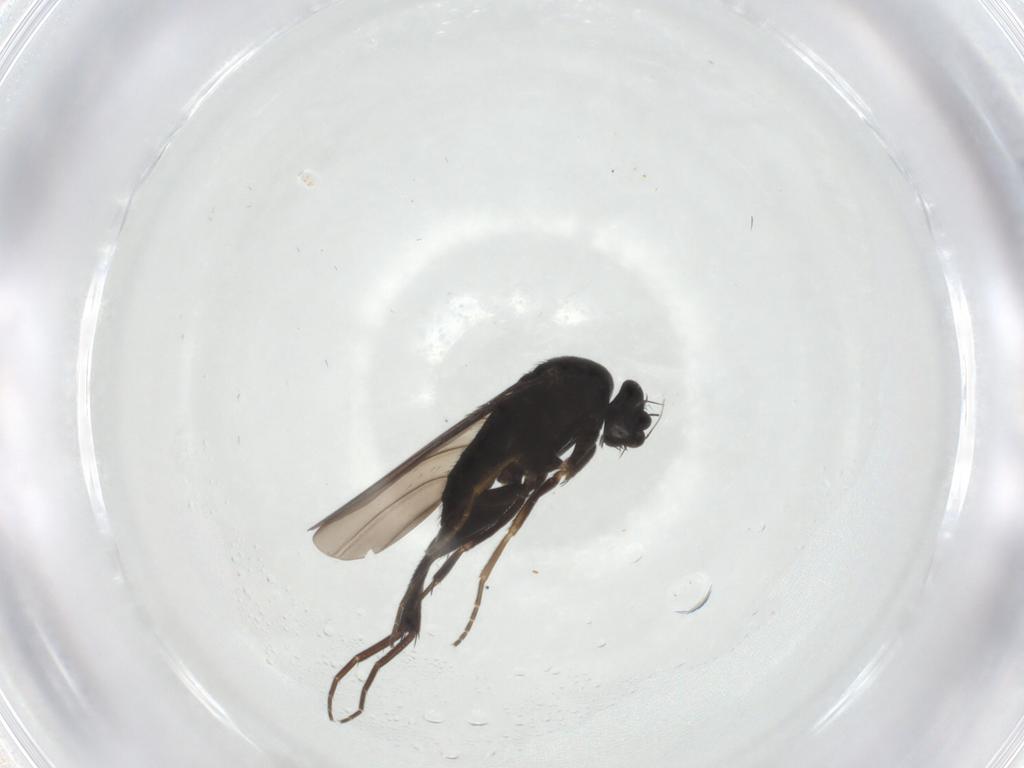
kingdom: Animalia
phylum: Arthropoda
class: Insecta
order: Diptera
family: Phoridae
